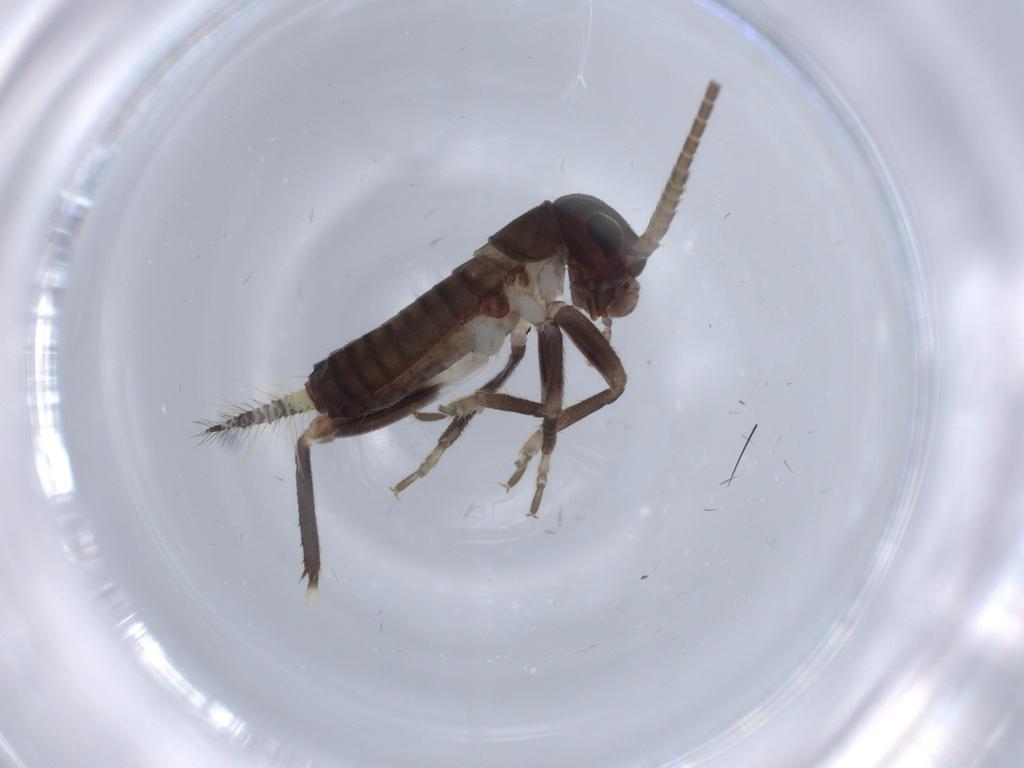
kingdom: Animalia
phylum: Arthropoda
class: Insecta
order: Orthoptera
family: Gryllidae
